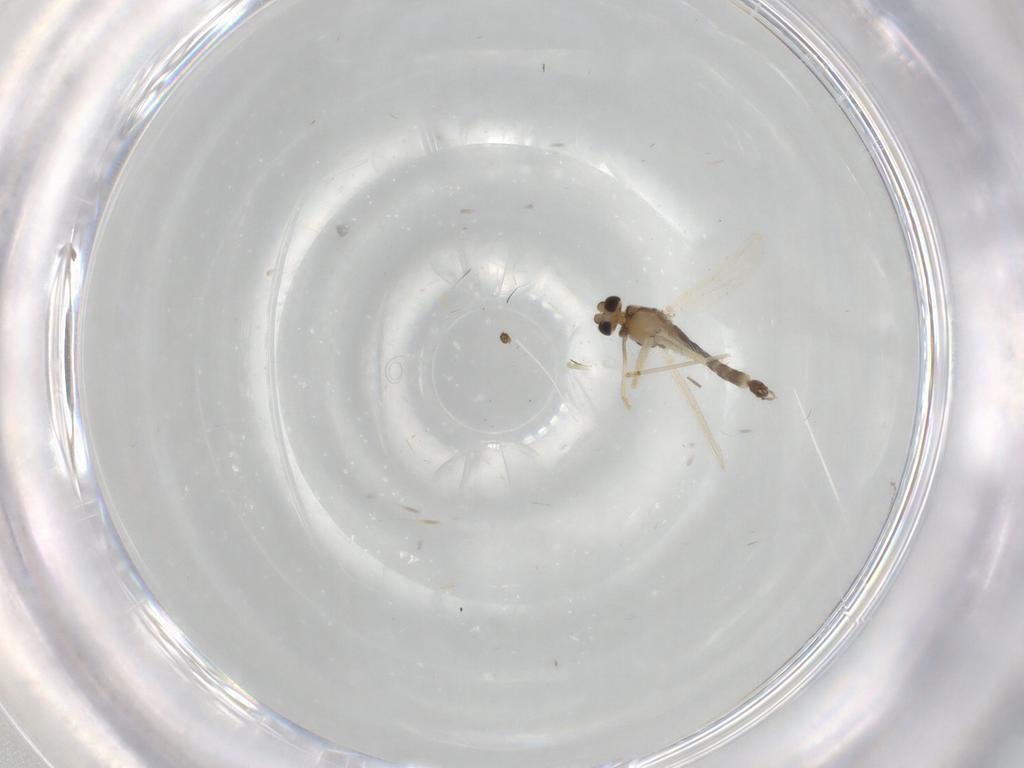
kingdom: Animalia
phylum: Arthropoda
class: Insecta
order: Diptera
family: Chironomidae
